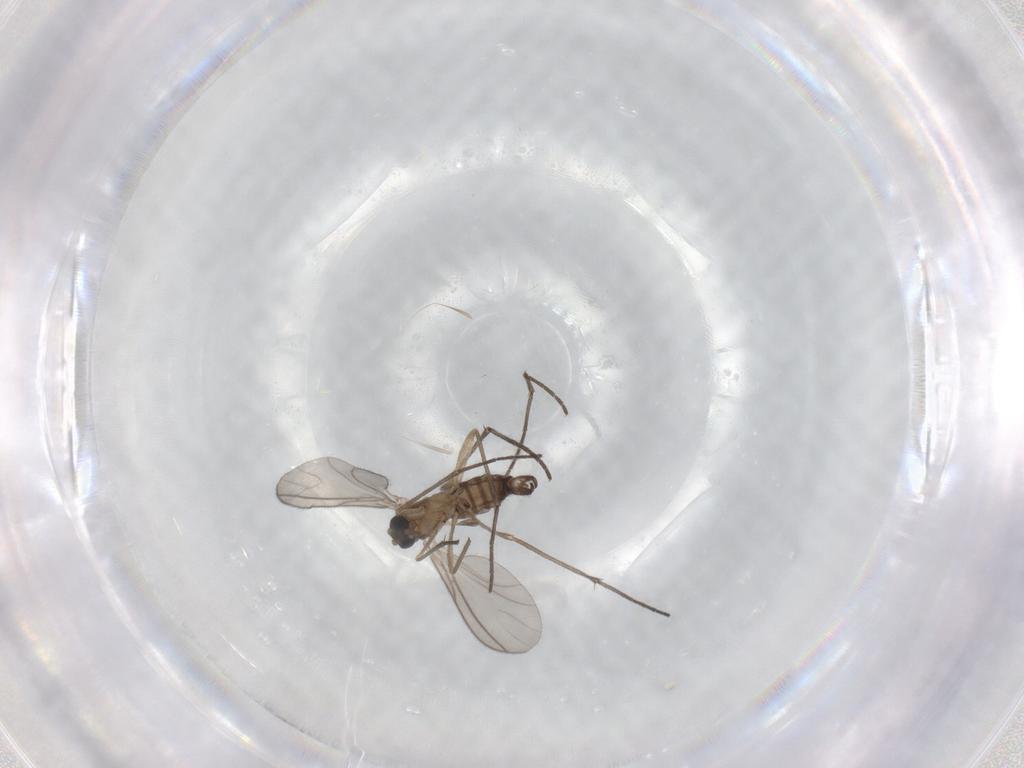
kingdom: Animalia
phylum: Arthropoda
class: Insecta
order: Diptera
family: Sciaridae
